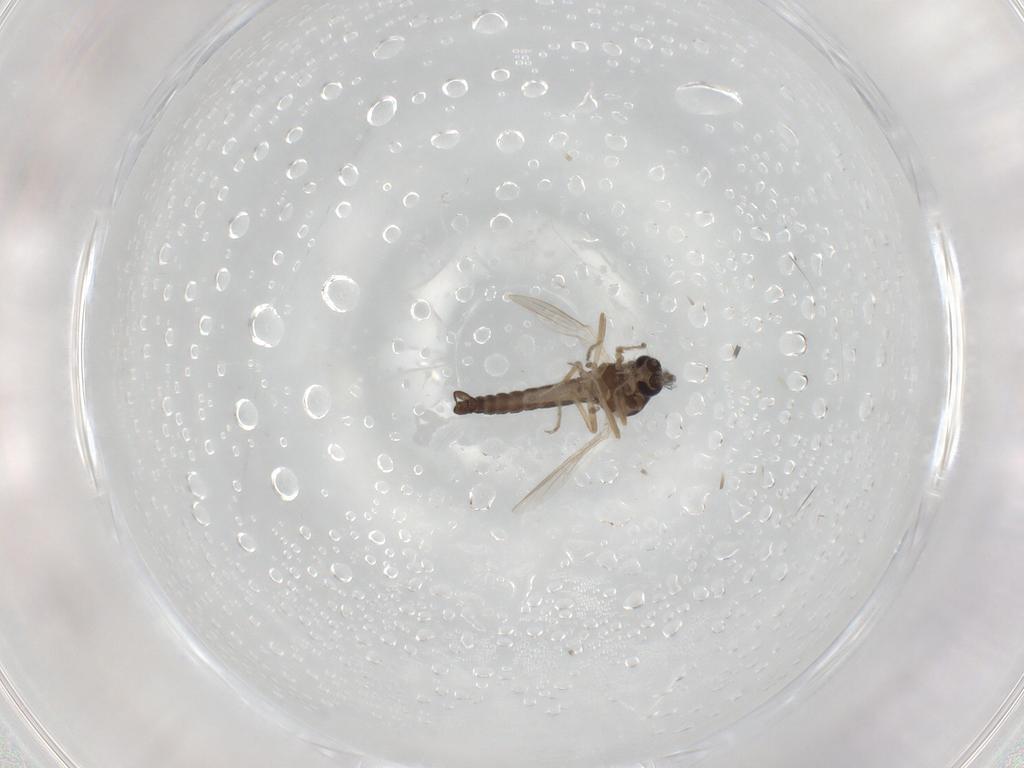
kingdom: Animalia
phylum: Arthropoda
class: Insecta
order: Diptera
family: Ceratopogonidae
